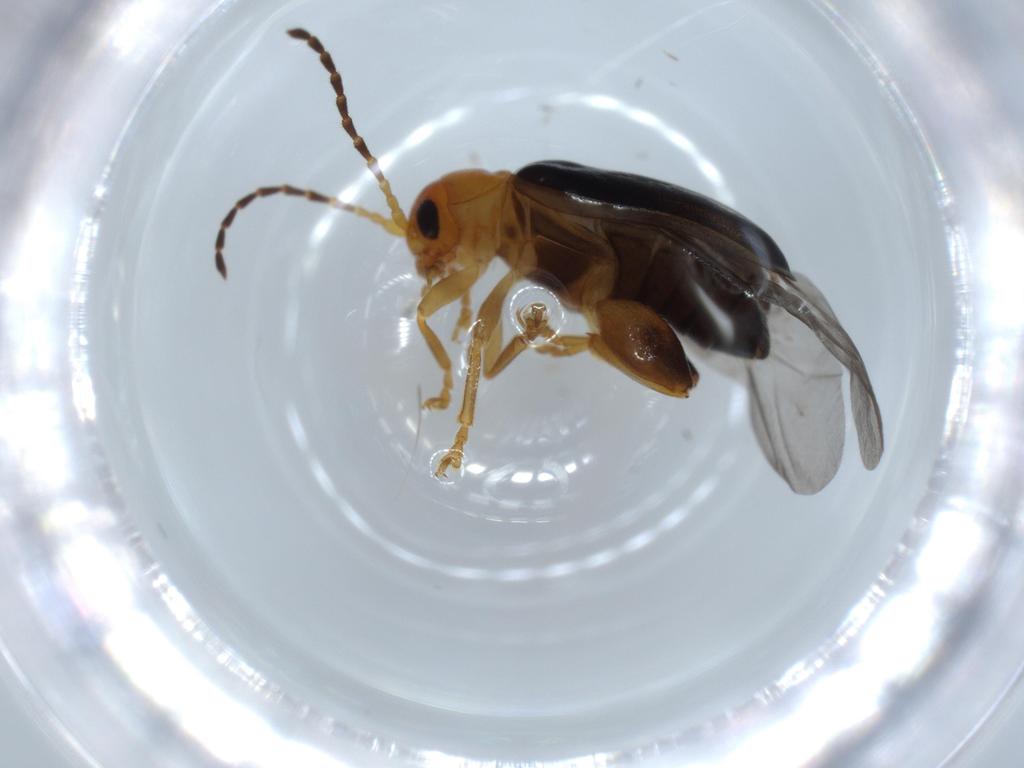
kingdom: Animalia
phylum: Arthropoda
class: Insecta
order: Coleoptera
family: Chrysomelidae
